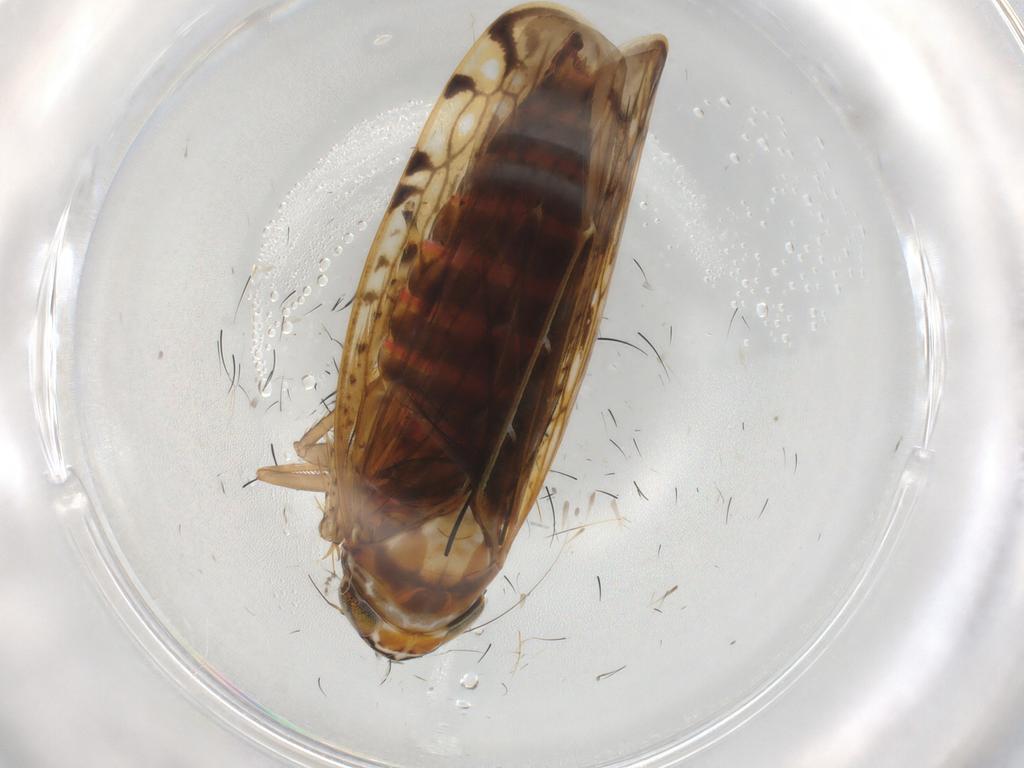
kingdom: Animalia
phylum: Arthropoda
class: Insecta
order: Hemiptera
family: Cicadellidae
